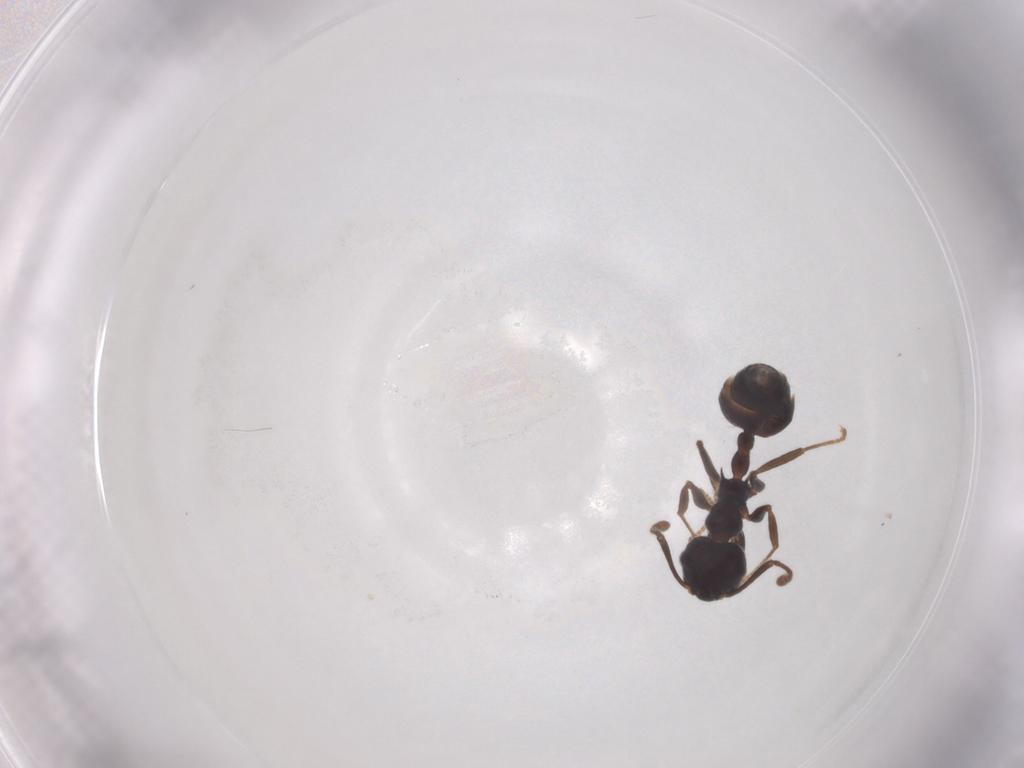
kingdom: Animalia
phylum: Arthropoda
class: Insecta
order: Hymenoptera
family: Formicidae
